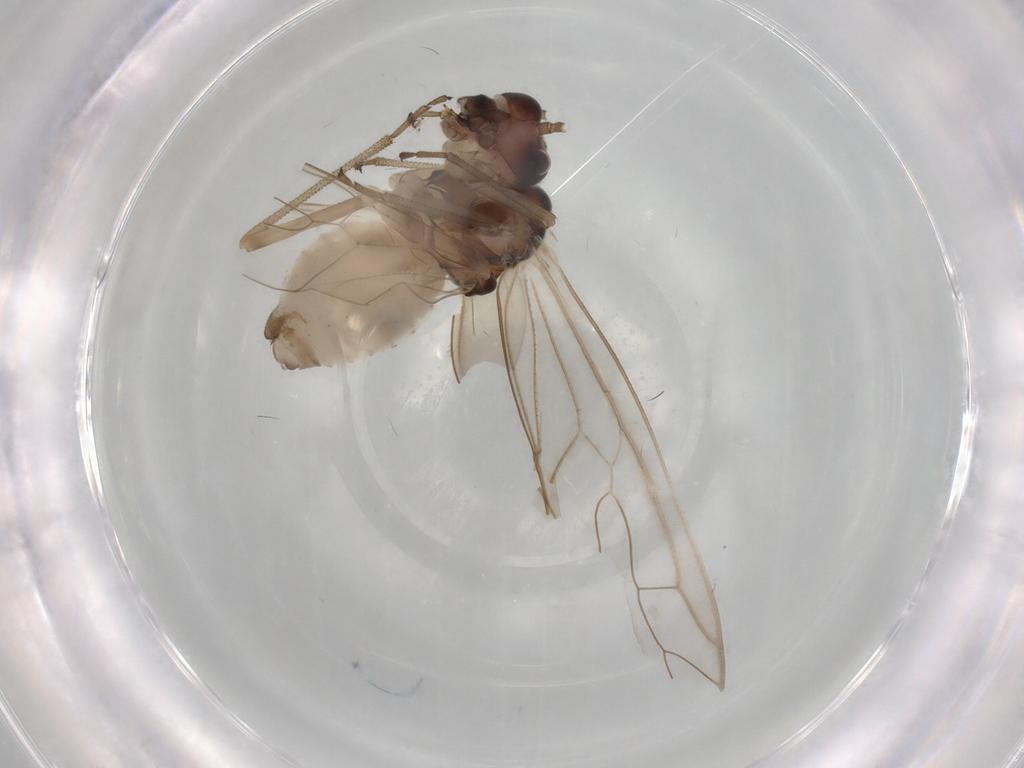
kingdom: Animalia
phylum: Arthropoda
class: Insecta
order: Psocodea
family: Stenopsocidae
